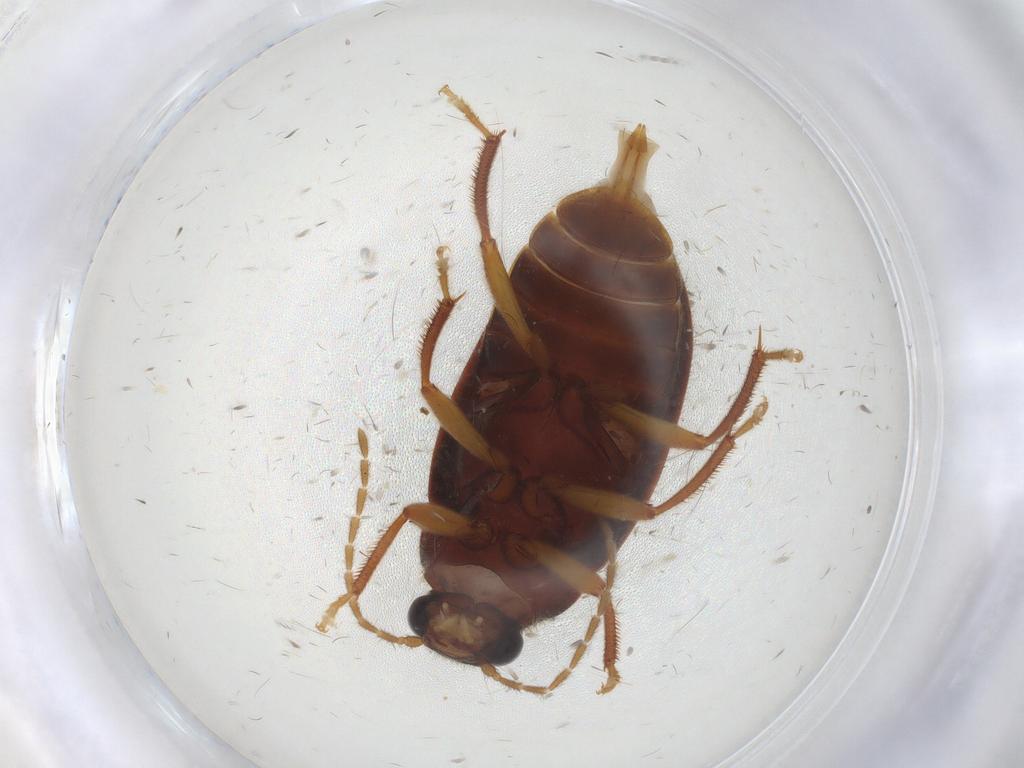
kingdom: Animalia
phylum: Arthropoda
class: Insecta
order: Coleoptera
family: Ptilodactylidae
